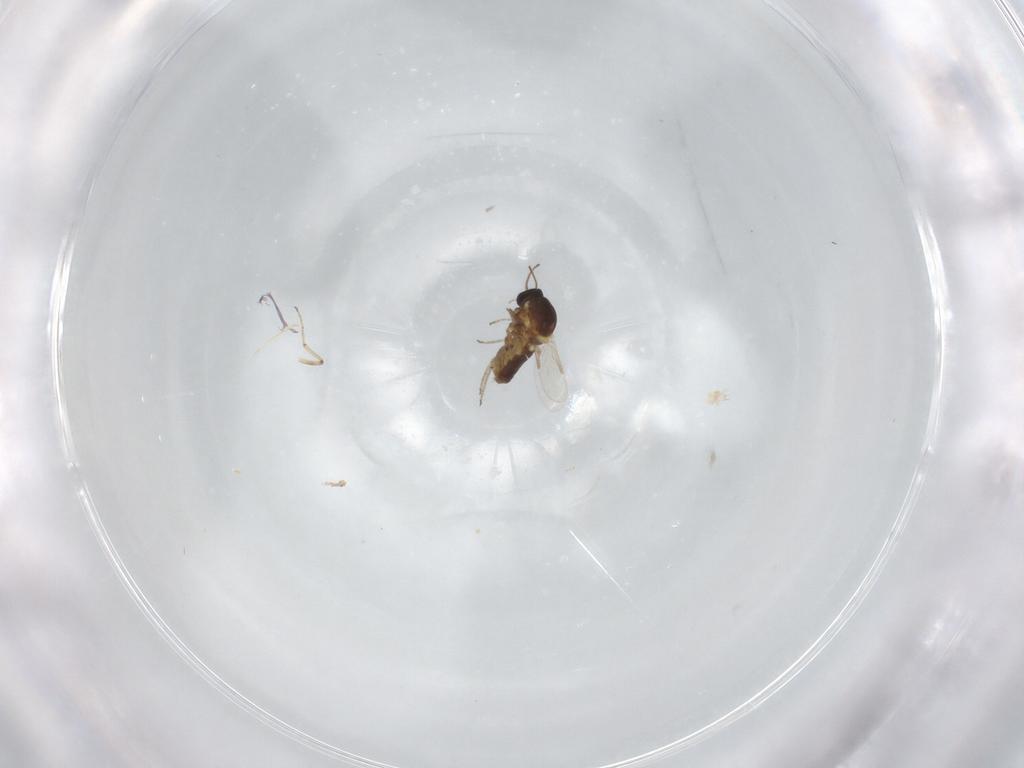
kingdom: Animalia
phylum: Arthropoda
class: Insecta
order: Diptera
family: Ceratopogonidae
